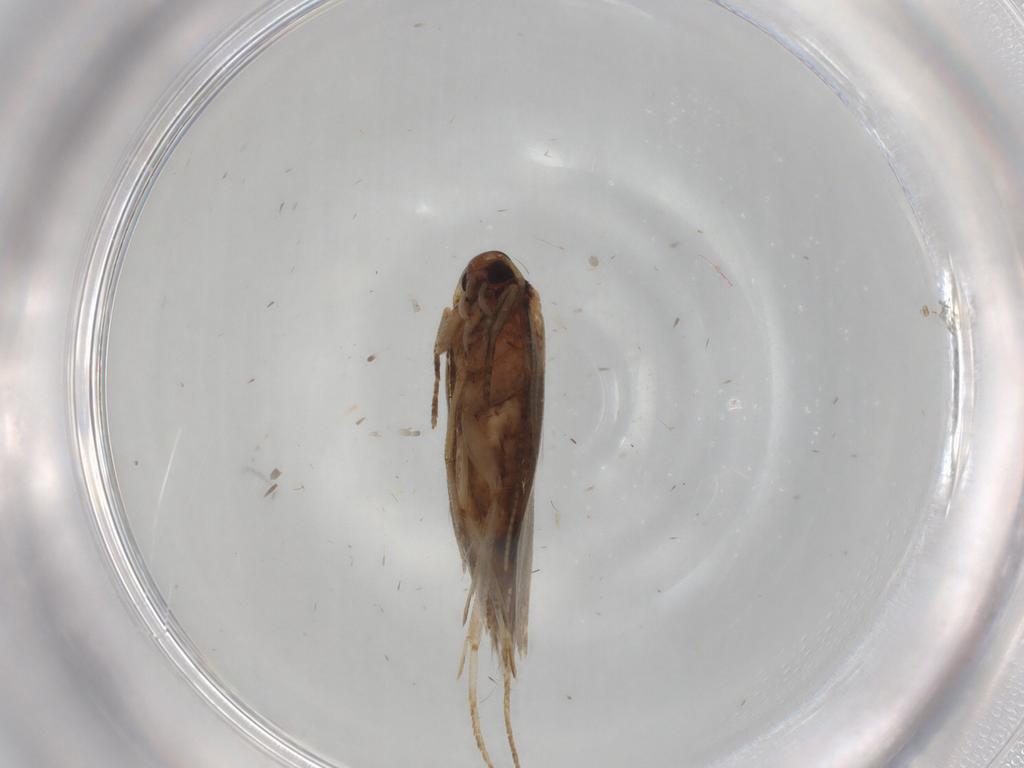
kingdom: Animalia
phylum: Arthropoda
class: Insecta
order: Lepidoptera
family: Cosmopterigidae
